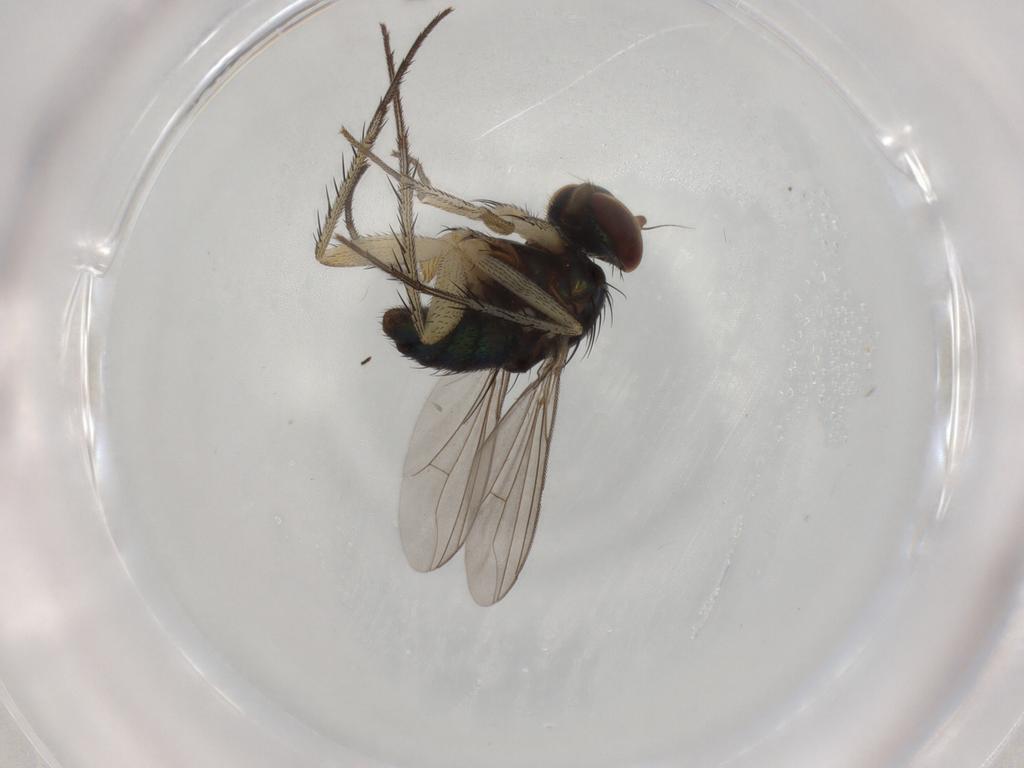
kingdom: Animalia
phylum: Arthropoda
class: Insecta
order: Diptera
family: Dolichopodidae
